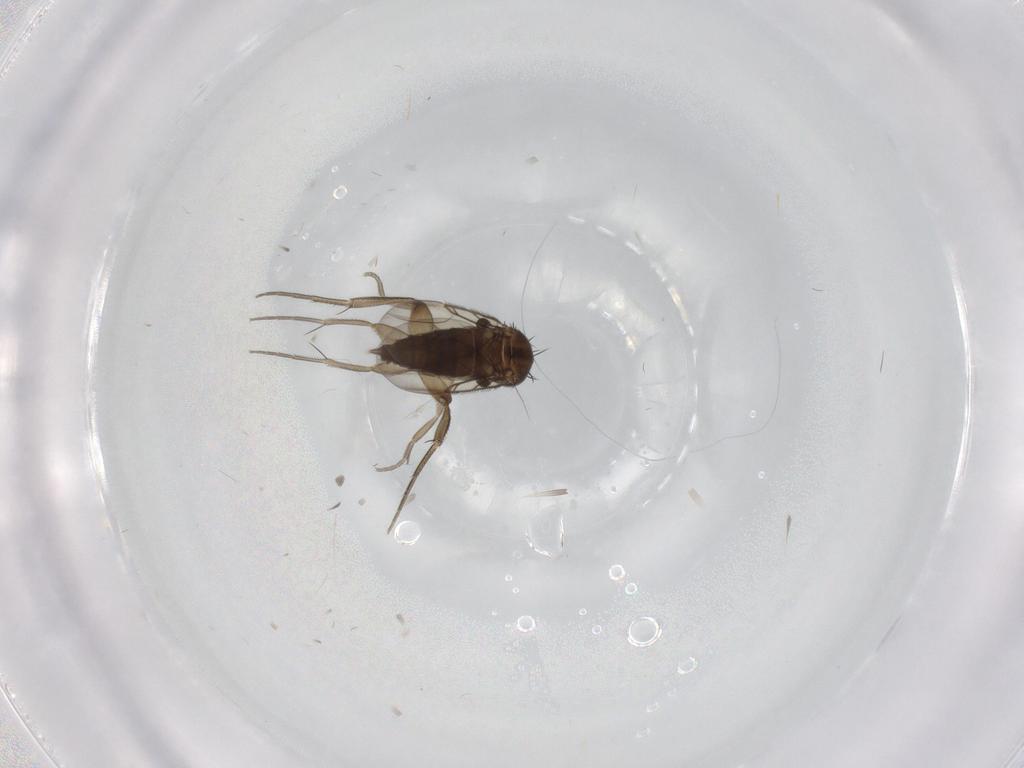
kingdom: Animalia
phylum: Arthropoda
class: Insecta
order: Diptera
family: Phoridae
